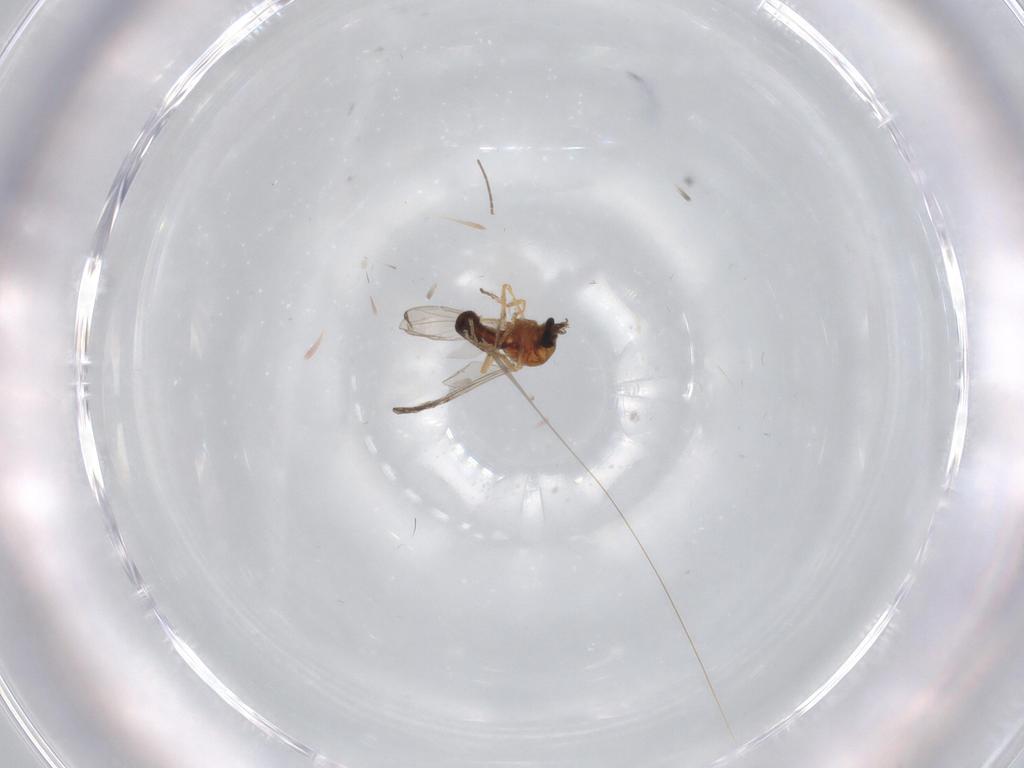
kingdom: Animalia
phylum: Arthropoda
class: Insecta
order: Diptera
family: Ceratopogonidae
